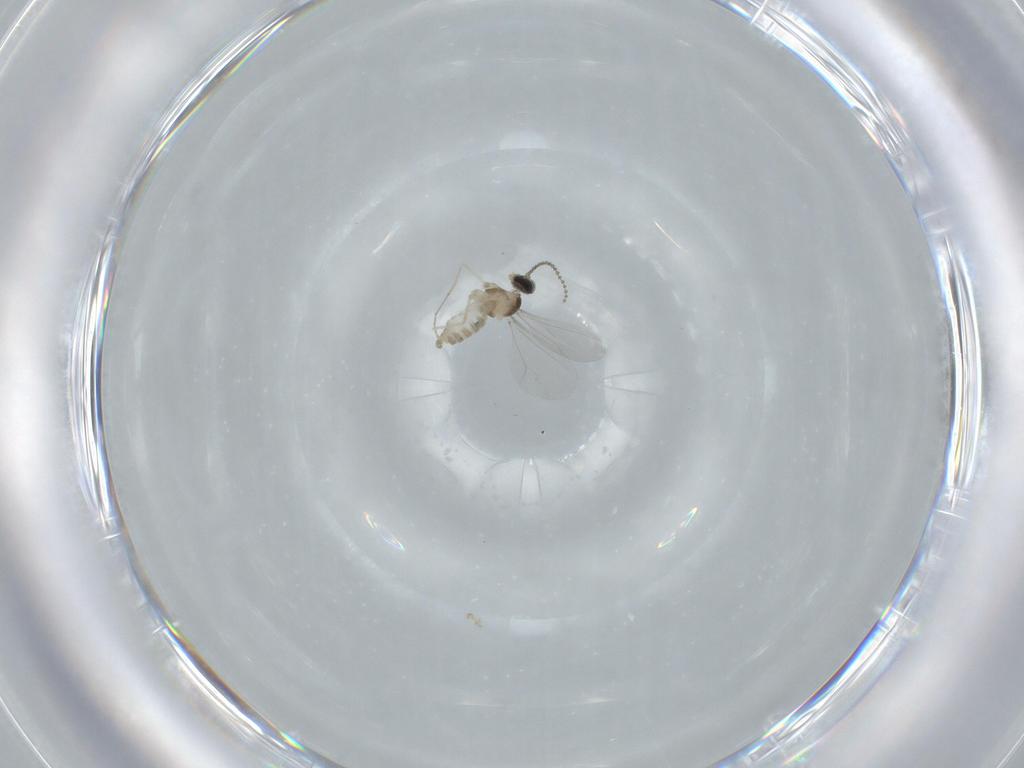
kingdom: Animalia
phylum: Arthropoda
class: Insecta
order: Diptera
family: Cecidomyiidae
